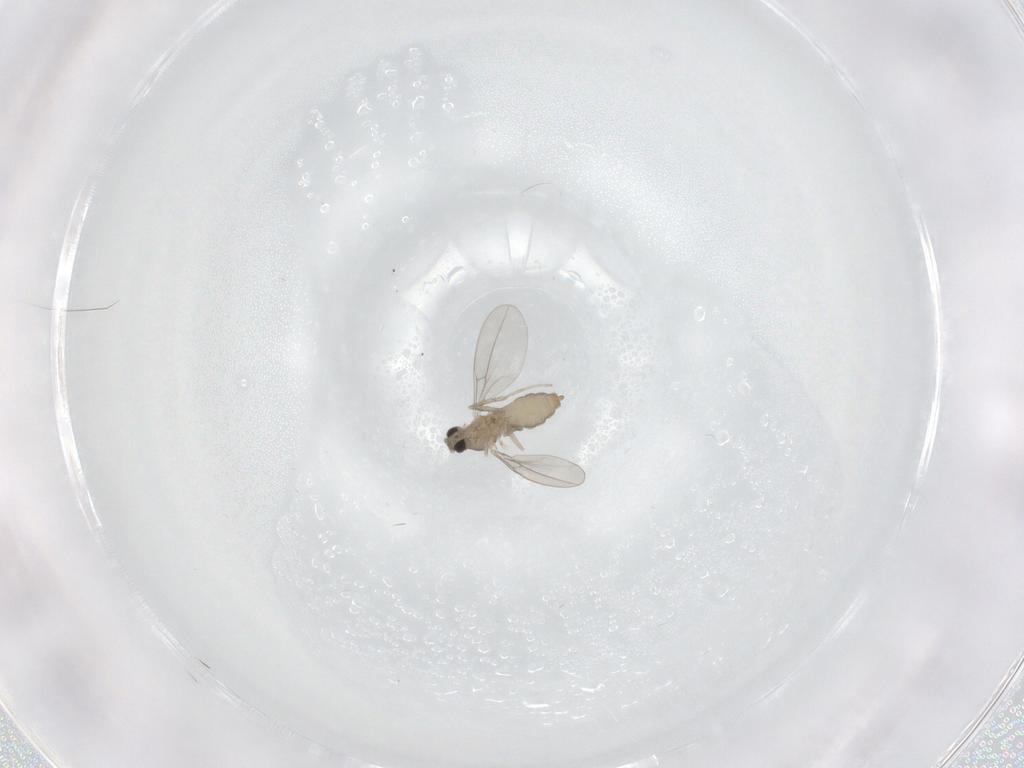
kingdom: Animalia
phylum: Arthropoda
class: Insecta
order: Diptera
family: Cecidomyiidae
